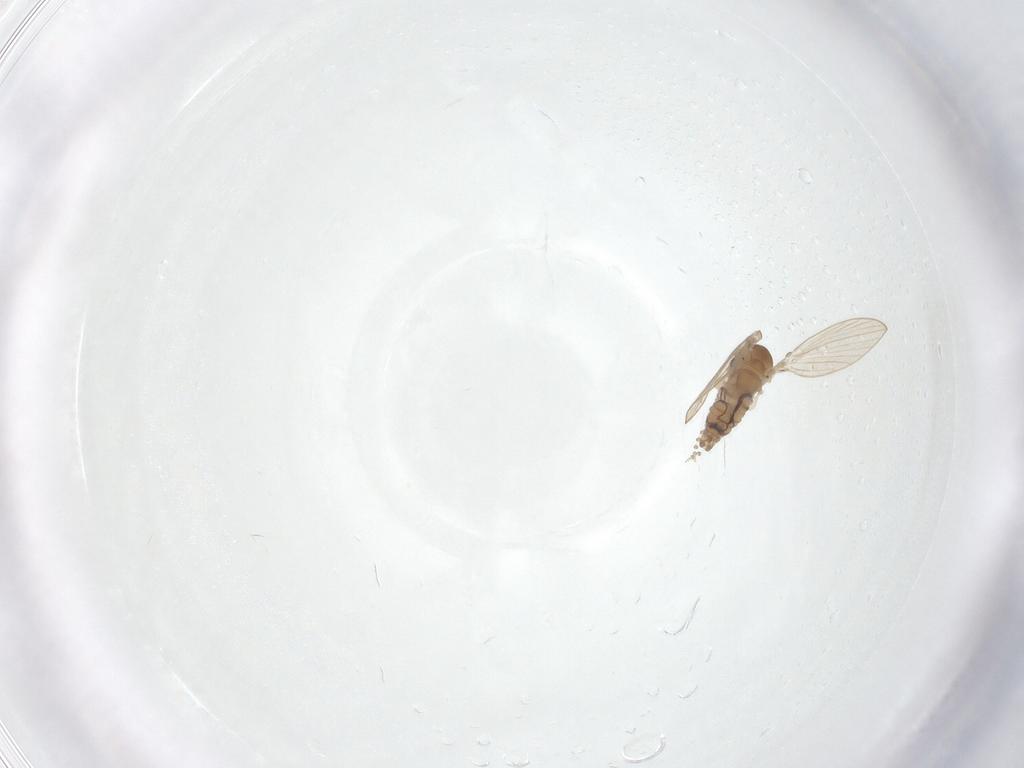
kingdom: Animalia
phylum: Arthropoda
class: Insecta
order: Diptera
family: Psychodidae
